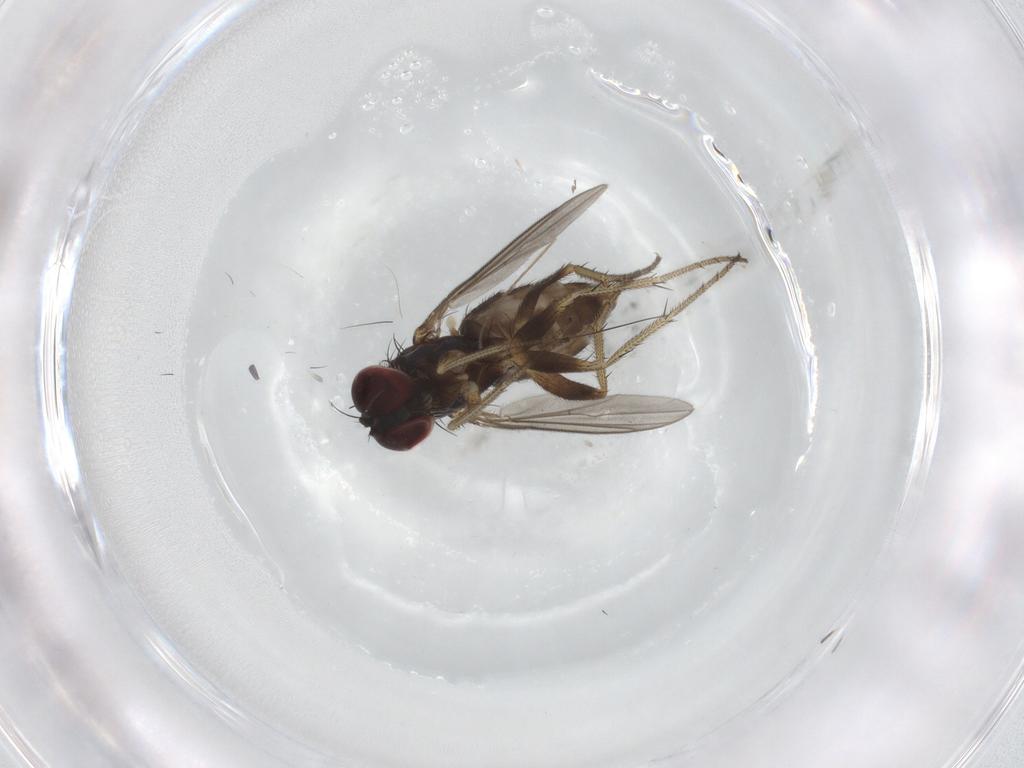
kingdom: Animalia
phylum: Arthropoda
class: Insecta
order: Diptera
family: Chironomidae
